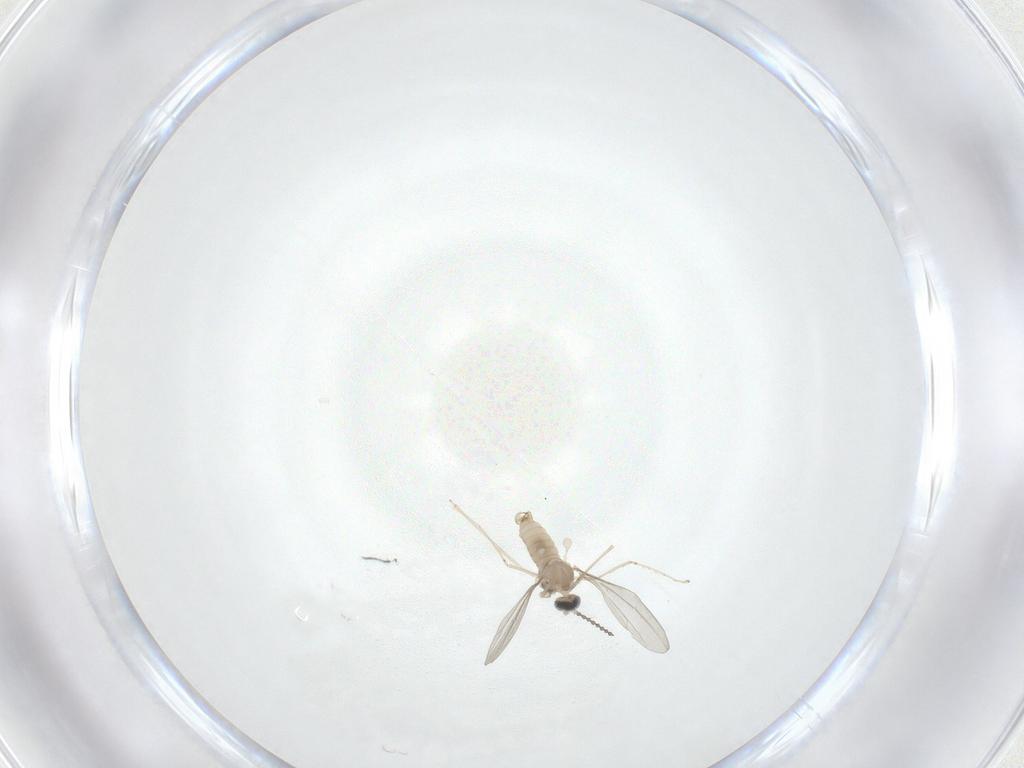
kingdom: Animalia
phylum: Arthropoda
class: Insecta
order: Diptera
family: Cecidomyiidae
